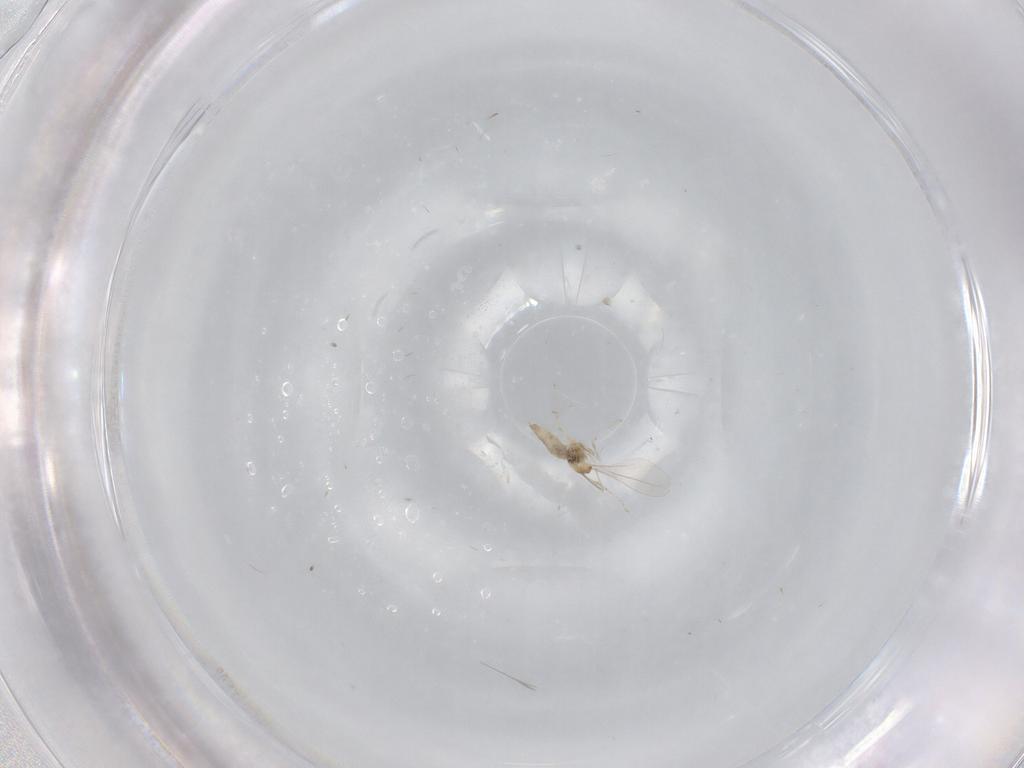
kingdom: Animalia
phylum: Arthropoda
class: Insecta
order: Diptera
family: Cecidomyiidae
